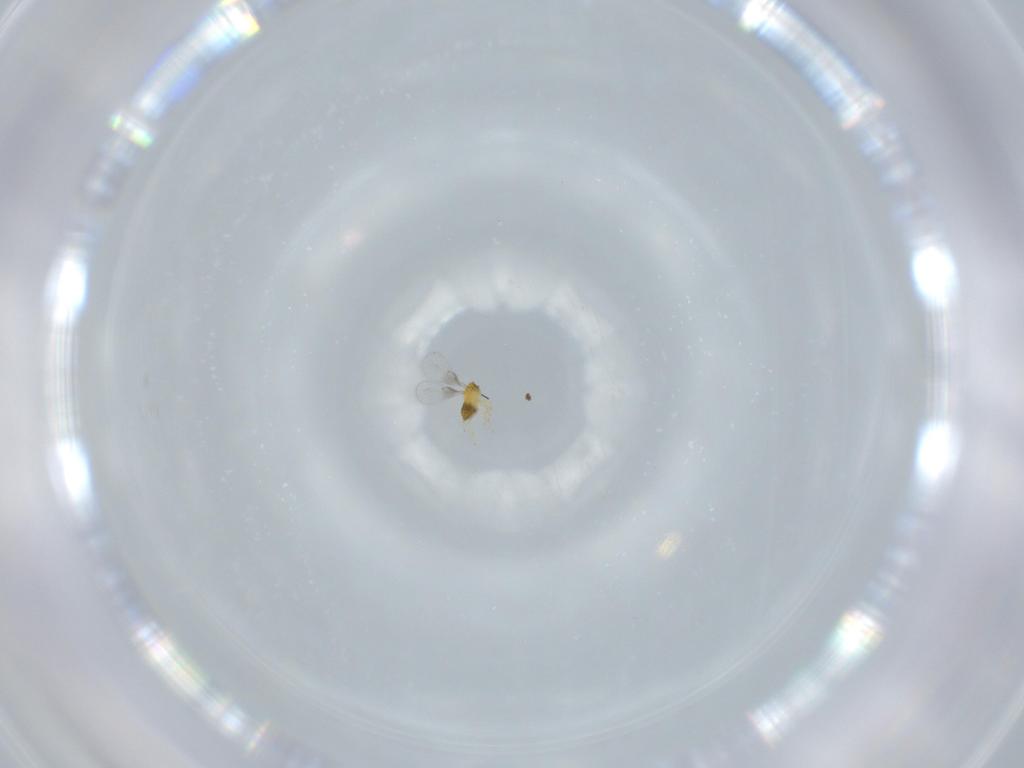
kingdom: Animalia
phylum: Arthropoda
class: Insecta
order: Hymenoptera
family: Trichogrammatidae
